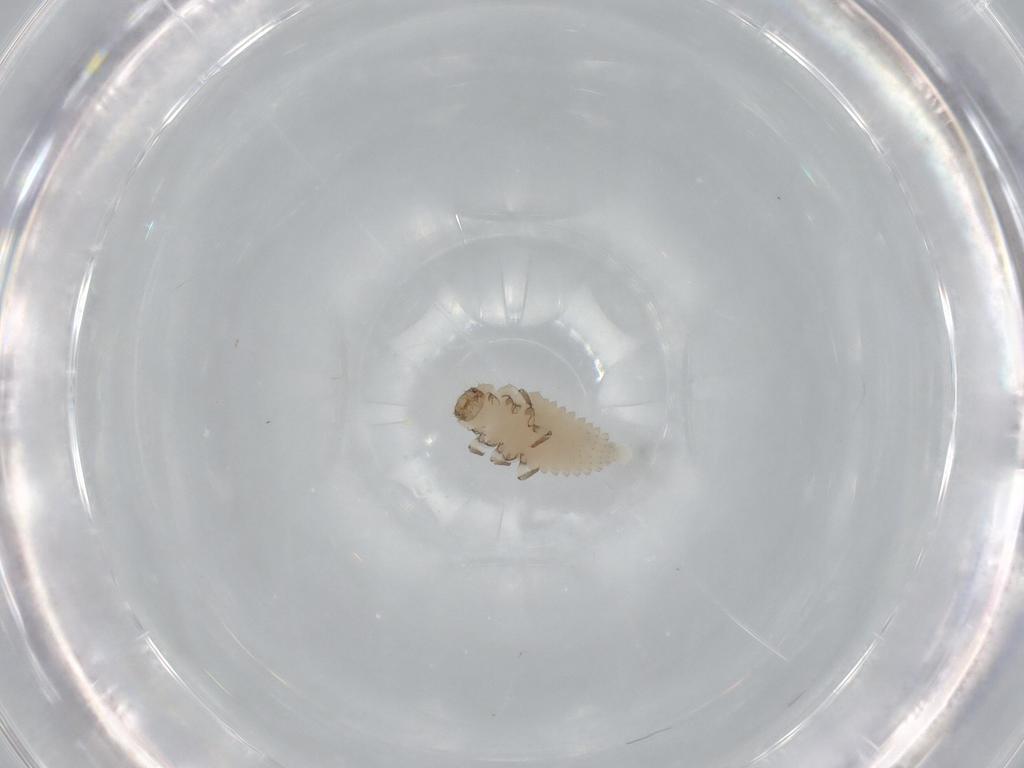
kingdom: Animalia
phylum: Arthropoda
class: Insecta
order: Coleoptera
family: Coccinellidae
